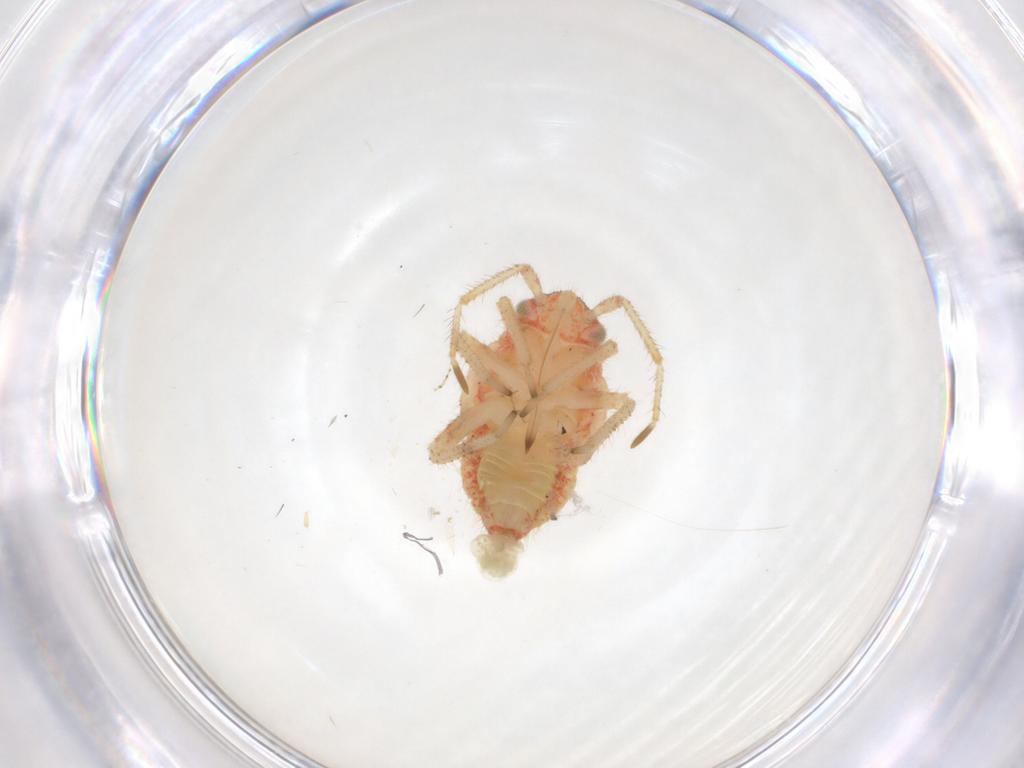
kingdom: Animalia
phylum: Arthropoda
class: Insecta
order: Hemiptera
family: Miridae
